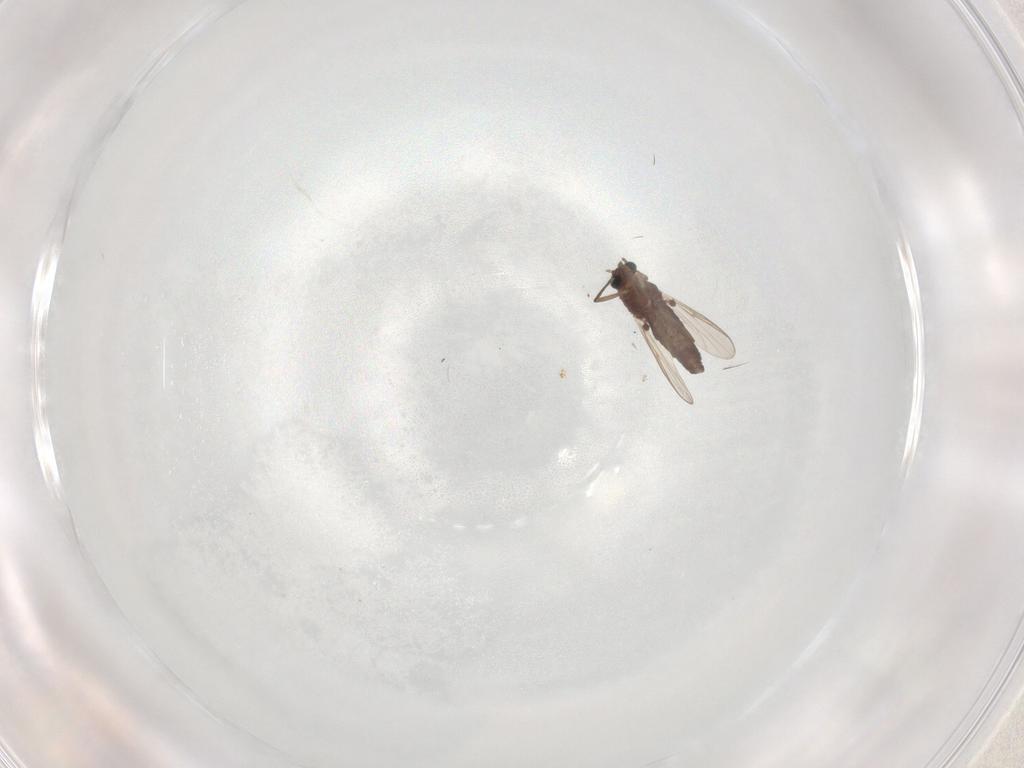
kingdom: Animalia
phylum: Arthropoda
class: Insecta
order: Diptera
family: Chironomidae
